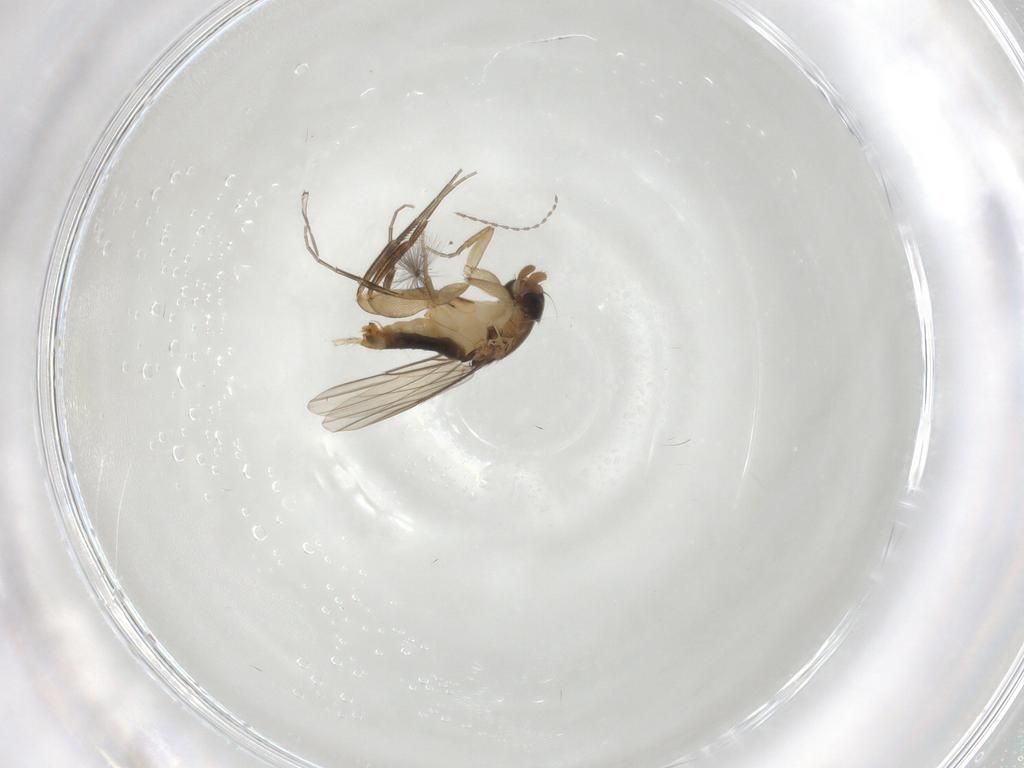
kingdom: Animalia
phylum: Arthropoda
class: Insecta
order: Diptera
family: Phoridae
